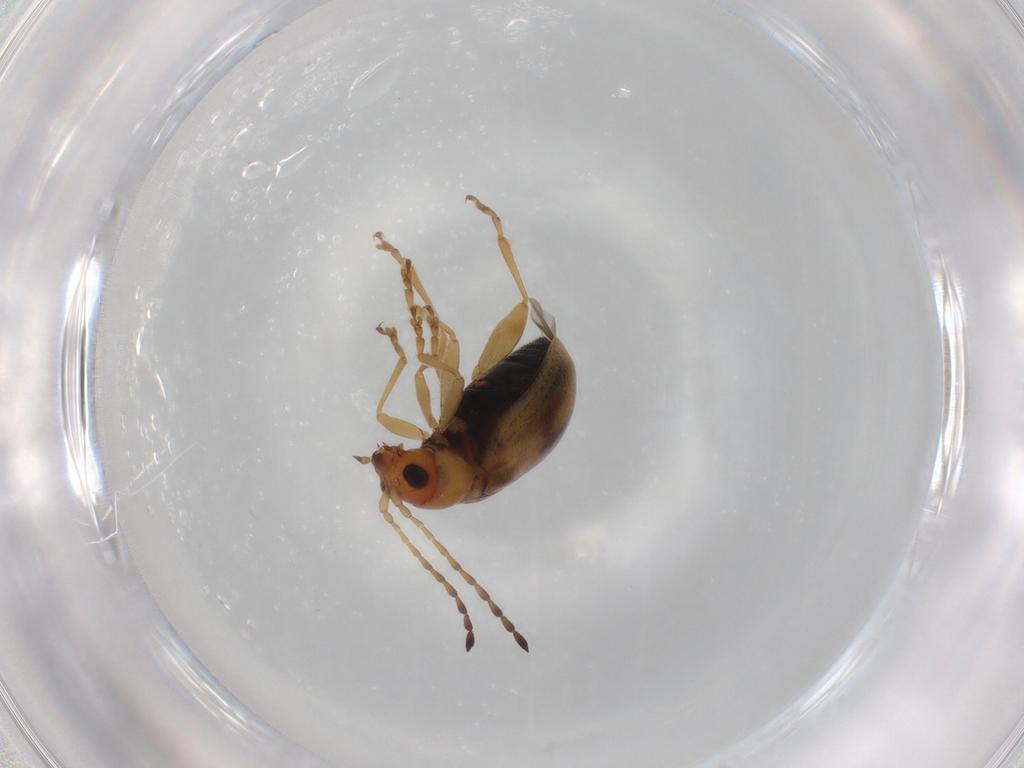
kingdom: Animalia
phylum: Arthropoda
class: Insecta
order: Coleoptera
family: Chrysomelidae
